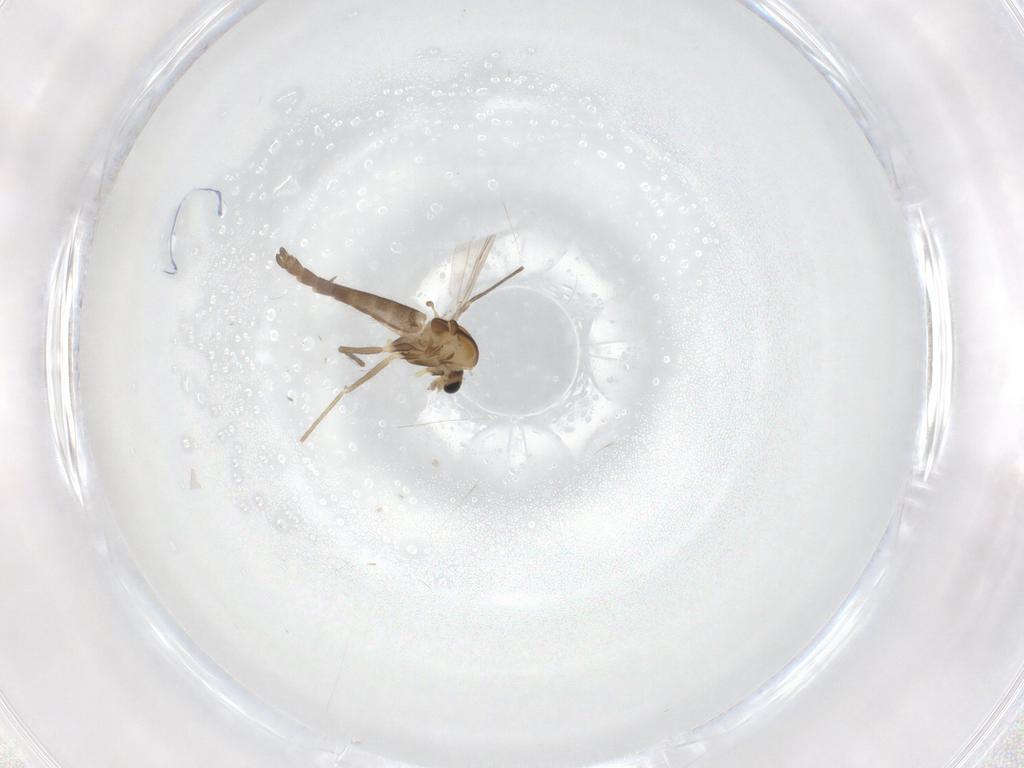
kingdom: Animalia
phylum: Arthropoda
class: Insecta
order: Diptera
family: Chironomidae
